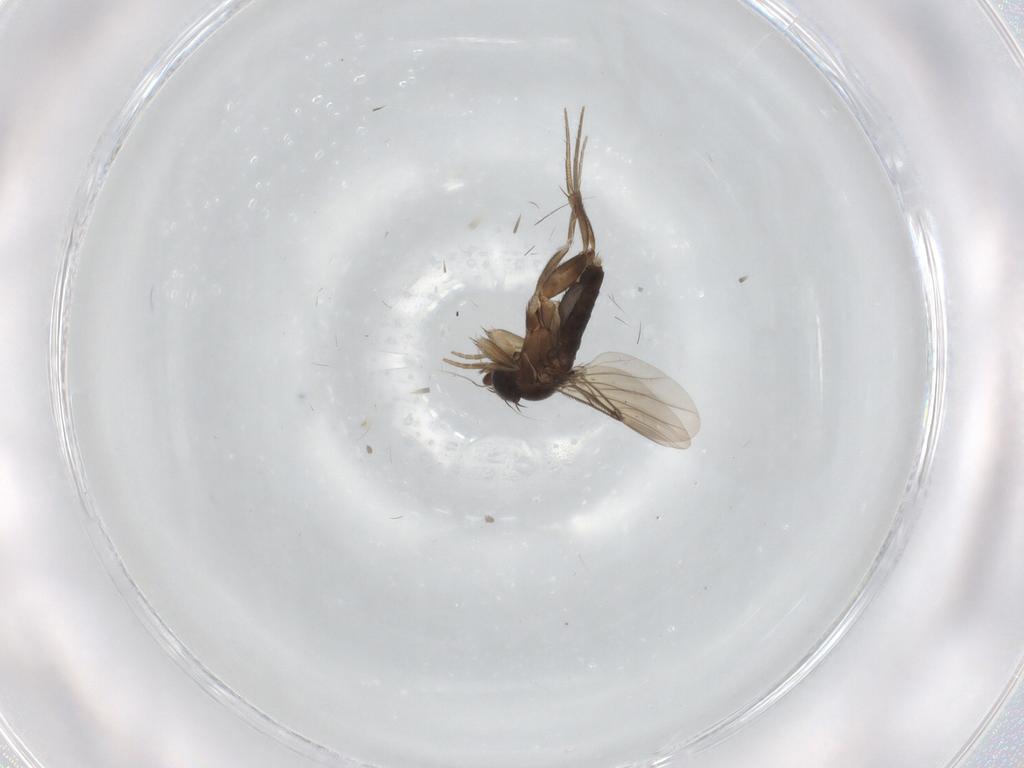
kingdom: Animalia
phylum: Arthropoda
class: Insecta
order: Diptera
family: Phoridae
